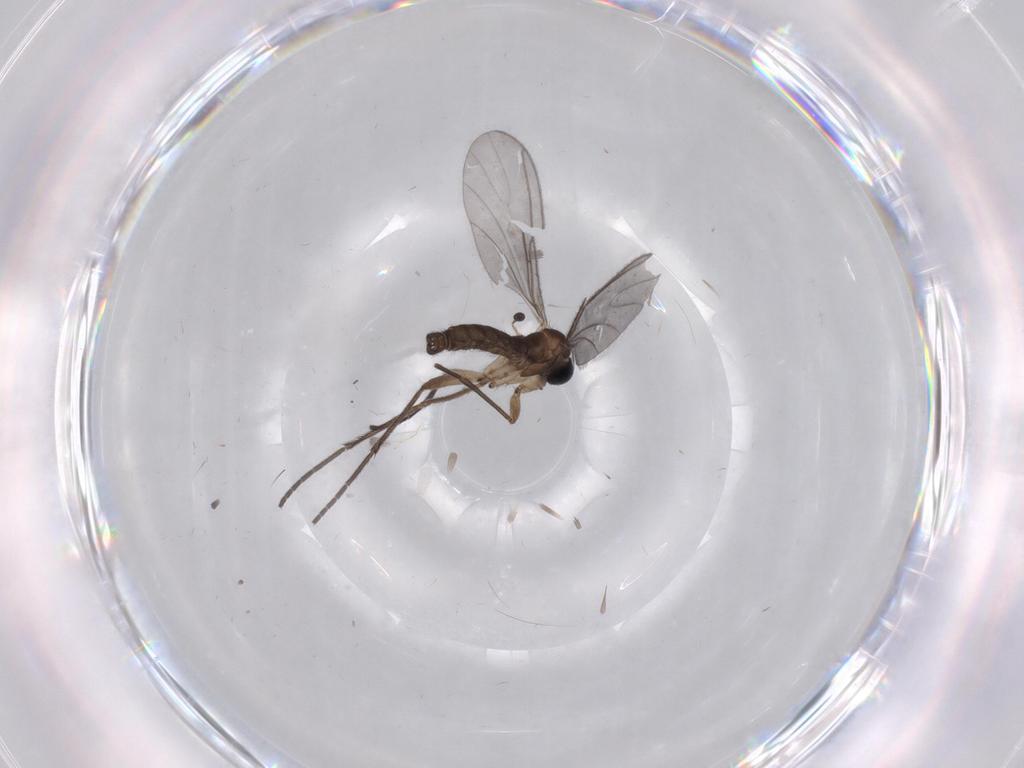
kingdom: Animalia
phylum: Arthropoda
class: Insecta
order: Diptera
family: Sciaridae
